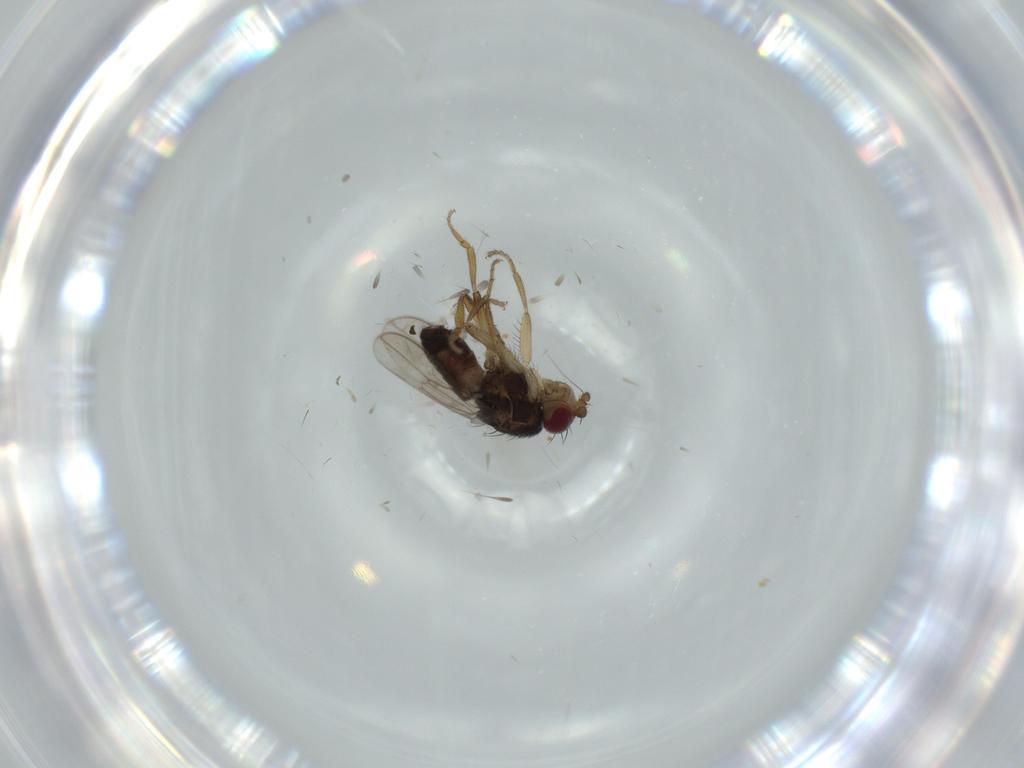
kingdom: Animalia
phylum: Arthropoda
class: Insecta
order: Diptera
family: Sphaeroceridae
